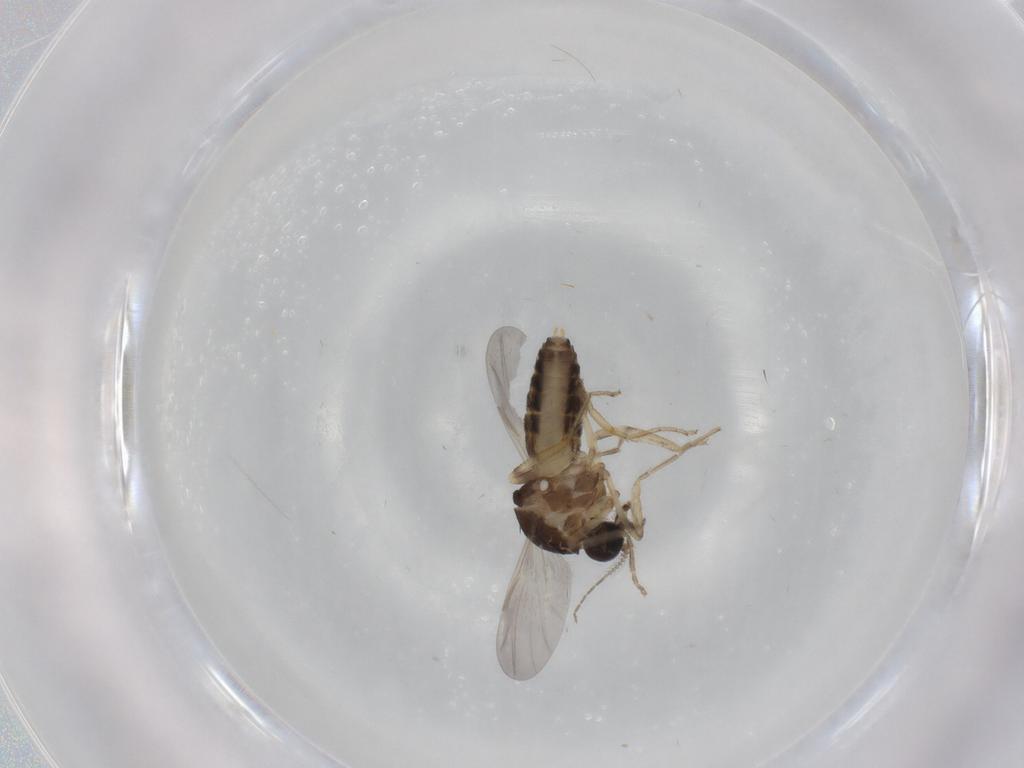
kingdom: Animalia
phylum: Arthropoda
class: Insecta
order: Diptera
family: Ceratopogonidae
